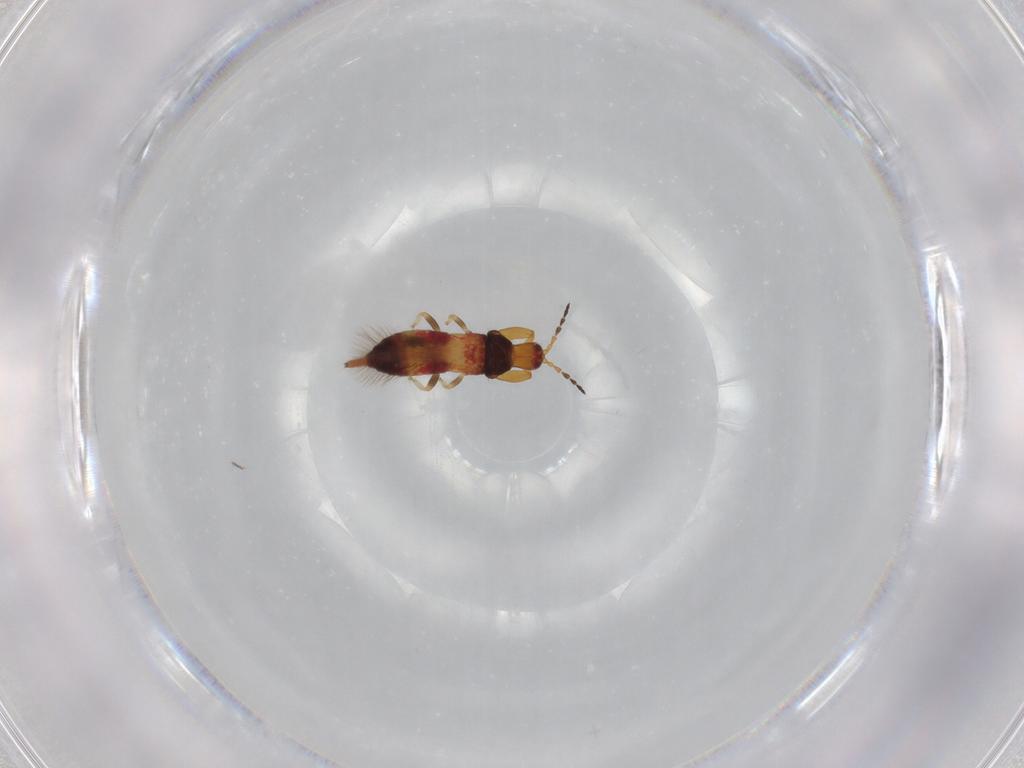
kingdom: Animalia
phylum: Arthropoda
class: Insecta
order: Thysanoptera
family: Phlaeothripidae
